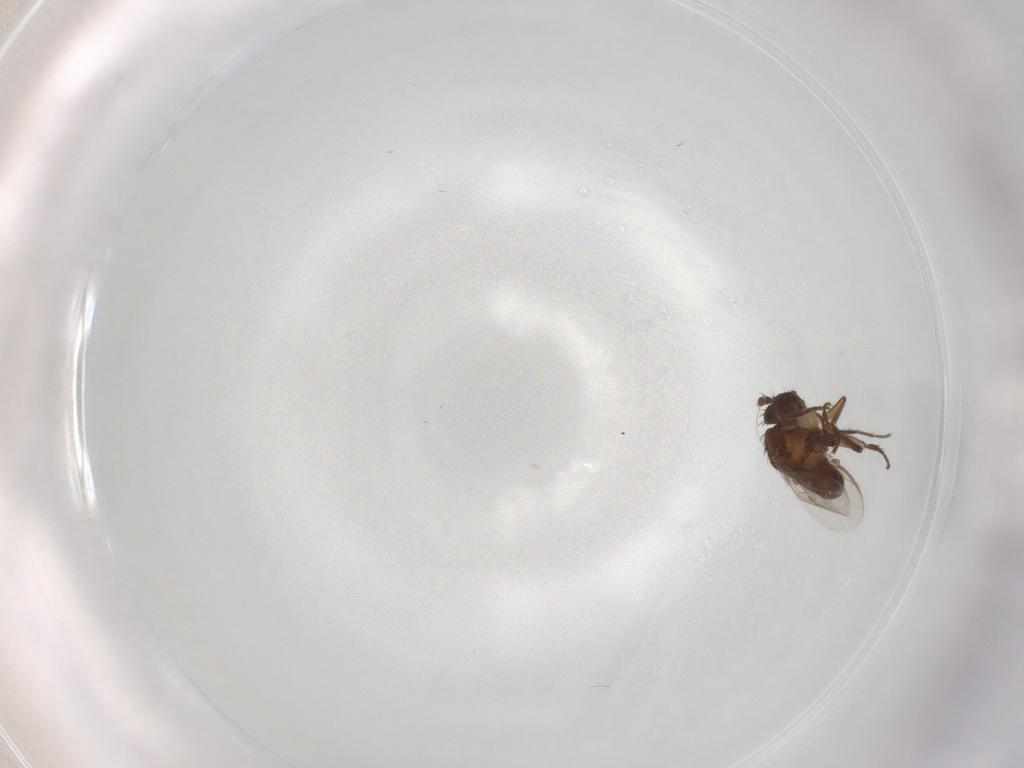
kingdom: Animalia
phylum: Arthropoda
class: Insecta
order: Diptera
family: Sphaeroceridae
